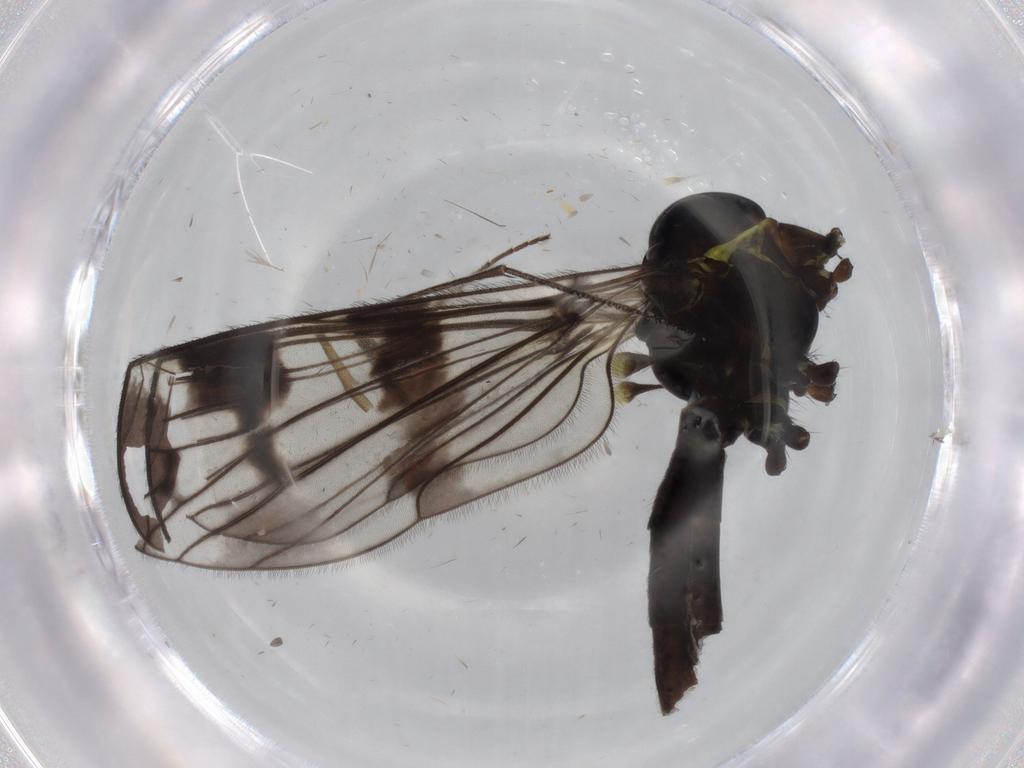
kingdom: Animalia
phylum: Arthropoda
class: Insecta
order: Diptera
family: Limoniidae
